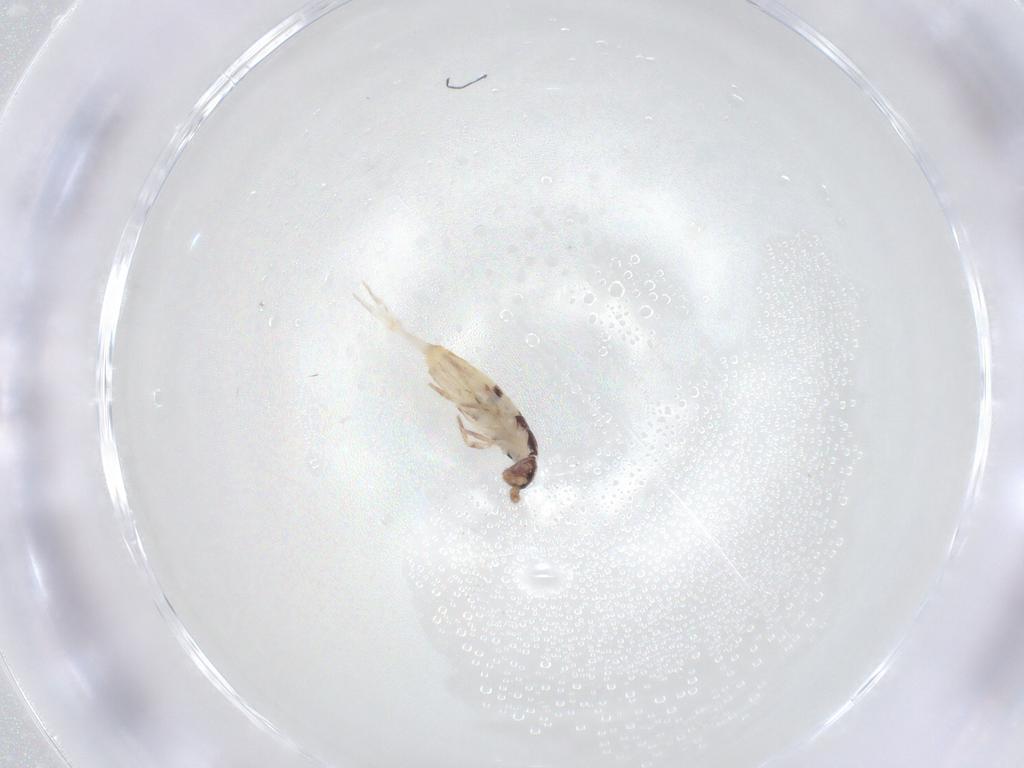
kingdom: Animalia
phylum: Arthropoda
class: Collembola
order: Entomobryomorpha
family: Entomobryidae
